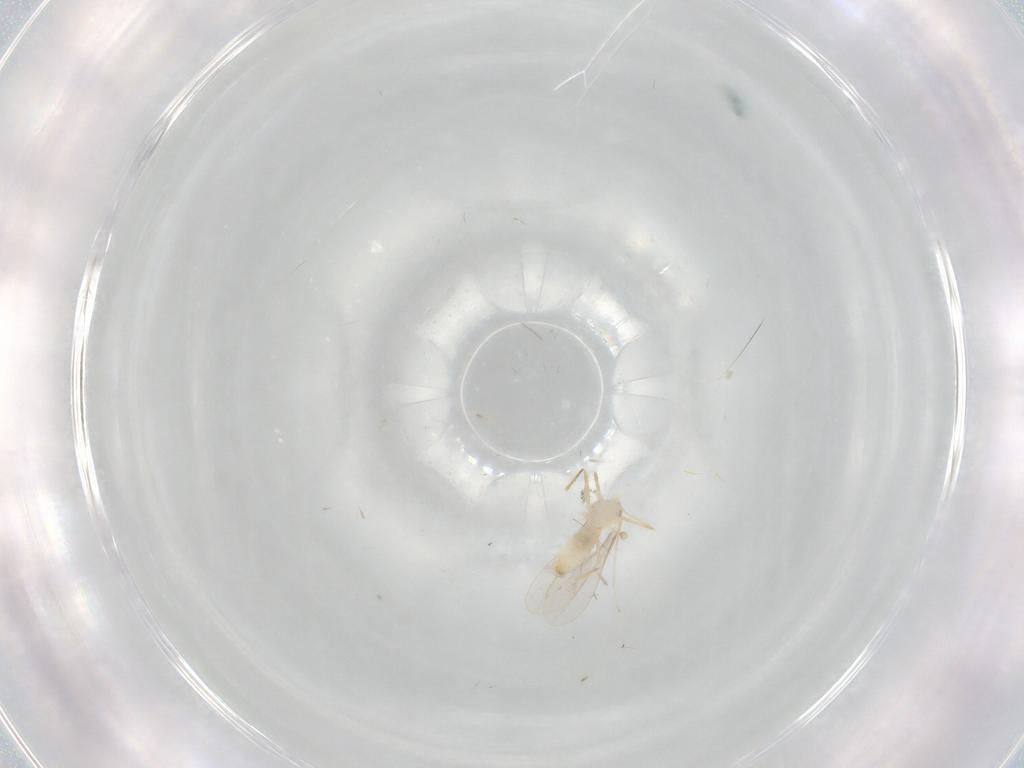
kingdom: Animalia
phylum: Arthropoda
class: Insecta
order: Diptera
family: Cecidomyiidae
